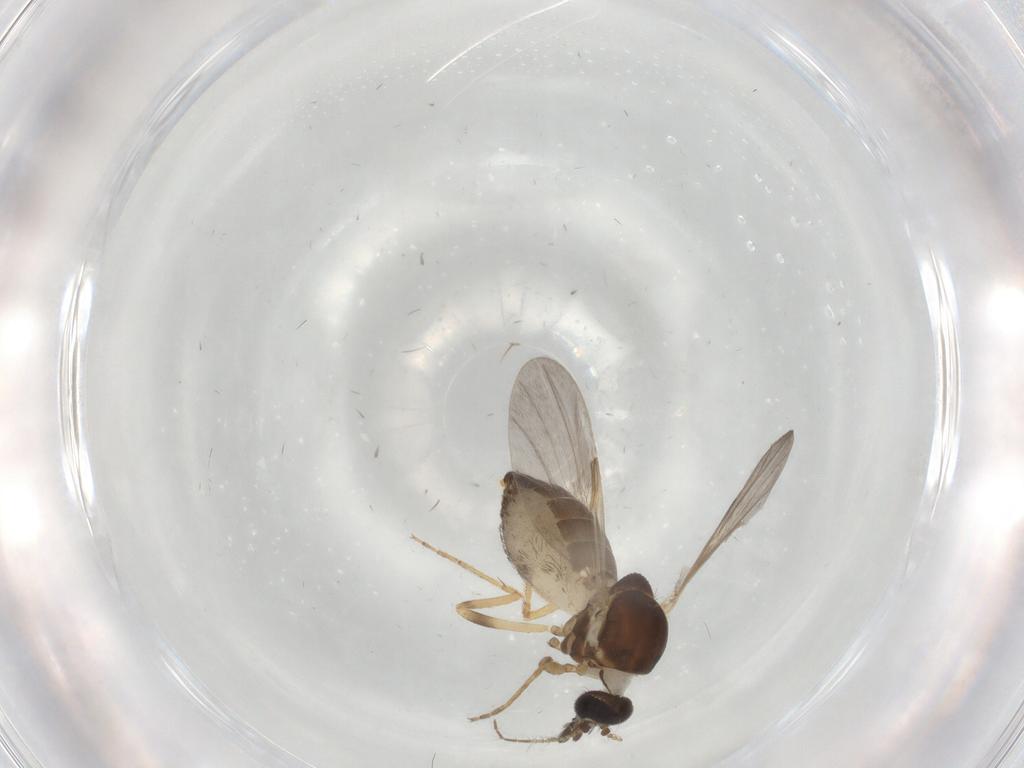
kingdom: Animalia
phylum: Arthropoda
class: Insecta
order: Diptera
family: Ceratopogonidae
